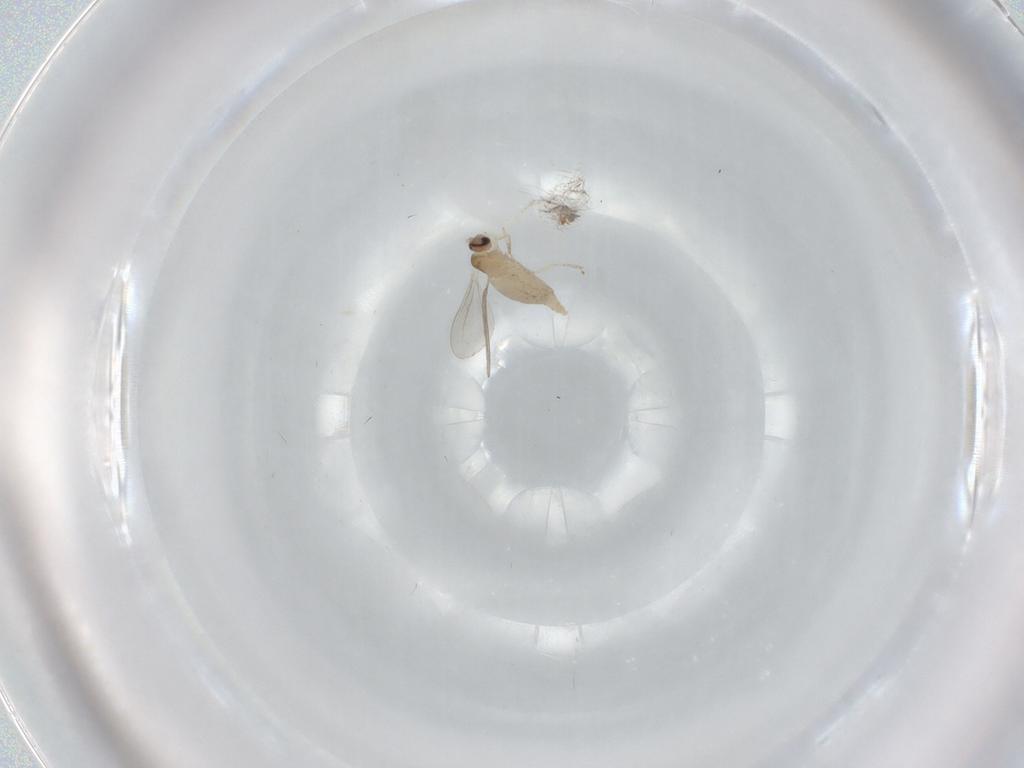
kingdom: Animalia
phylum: Arthropoda
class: Insecta
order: Diptera
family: Cecidomyiidae
